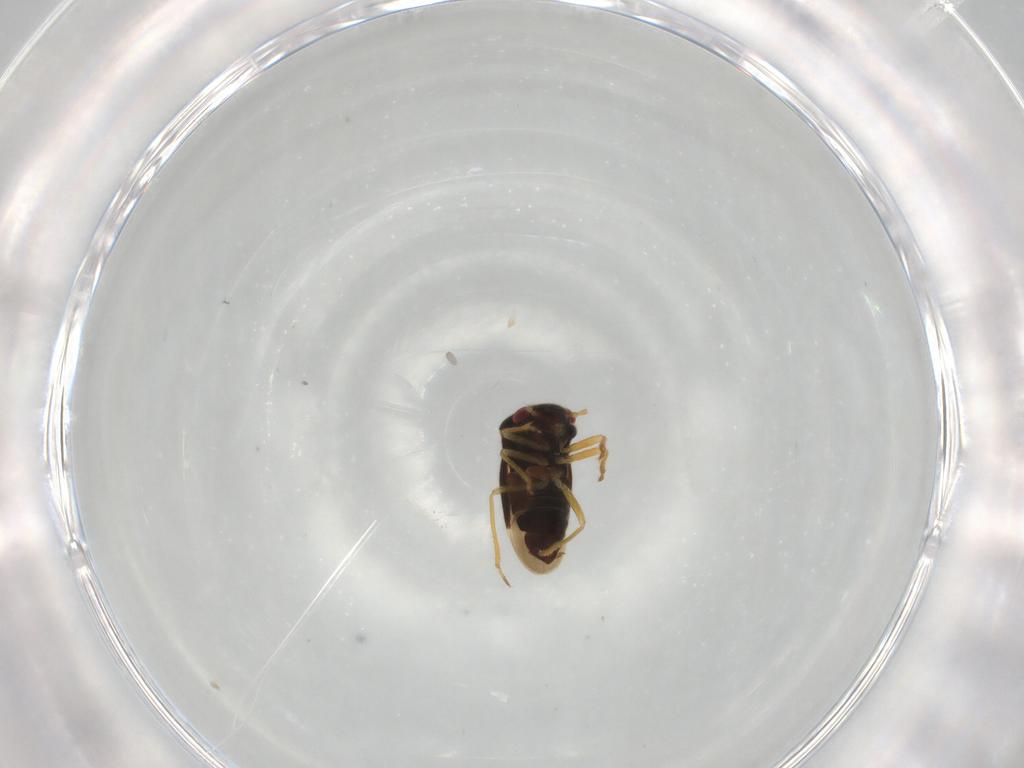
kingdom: Animalia
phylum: Arthropoda
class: Insecta
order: Hemiptera
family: Schizopteridae
